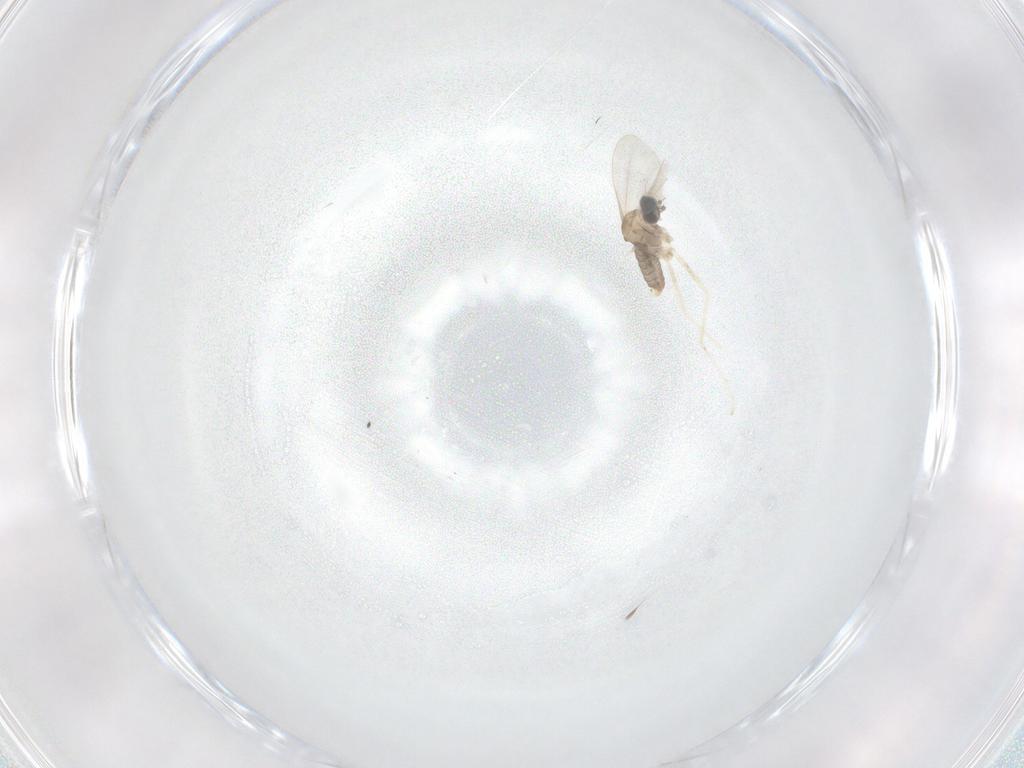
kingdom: Animalia
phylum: Arthropoda
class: Insecta
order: Diptera
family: Cecidomyiidae
